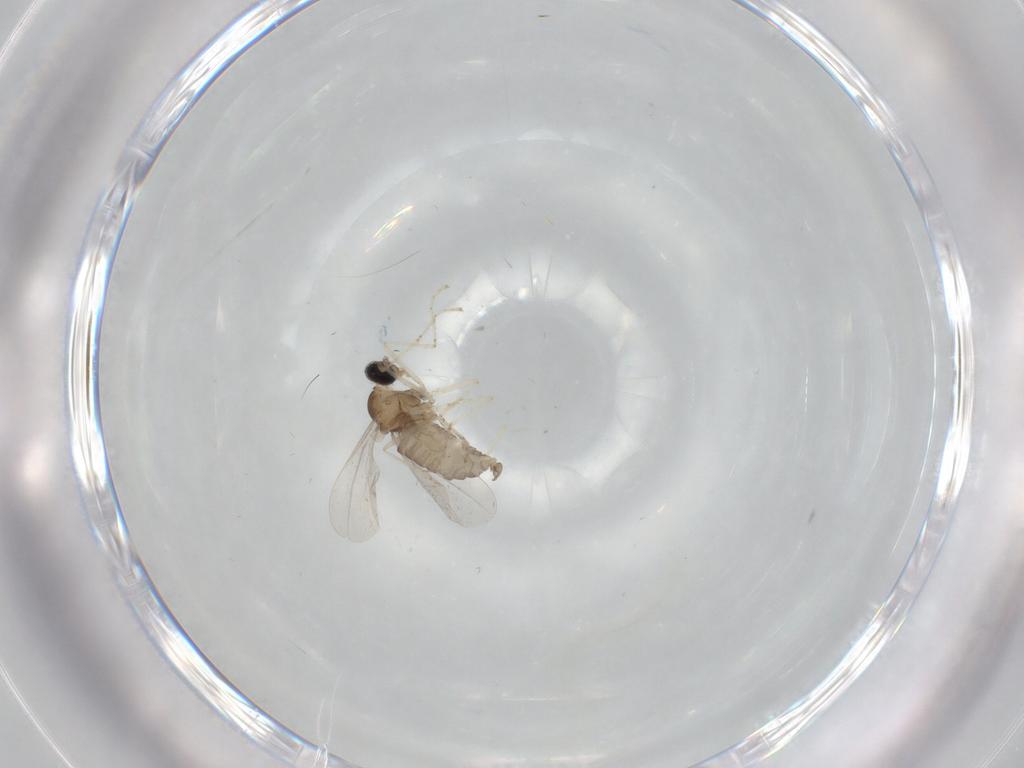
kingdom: Animalia
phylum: Arthropoda
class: Insecta
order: Diptera
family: Cecidomyiidae
